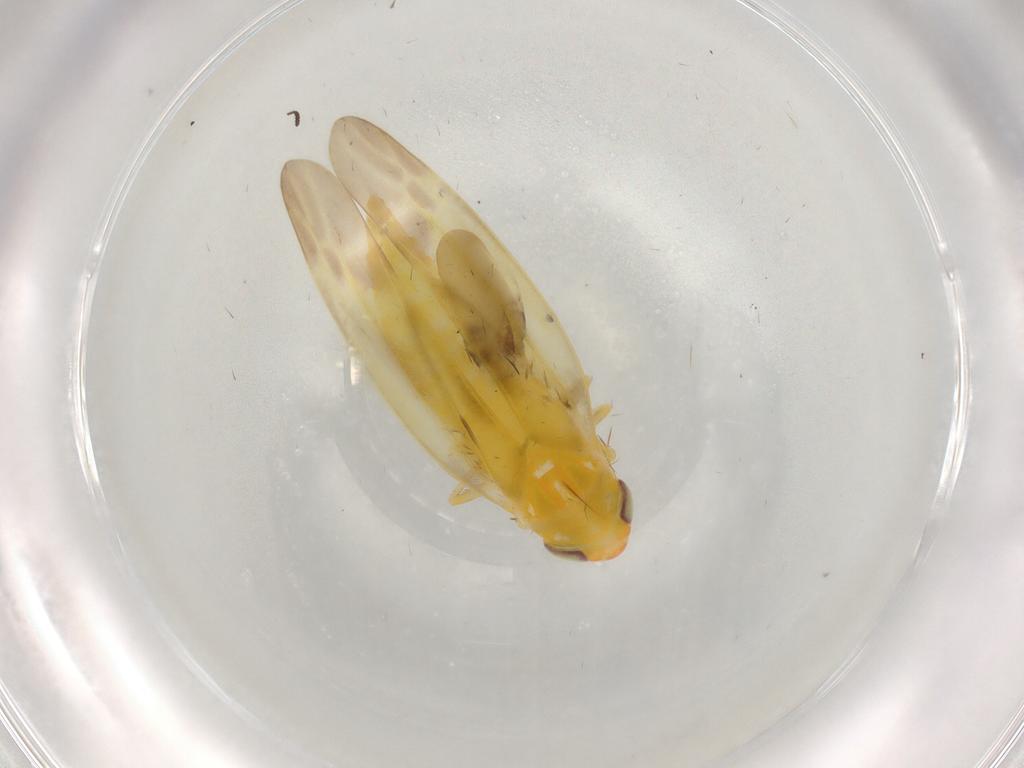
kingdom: Animalia
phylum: Arthropoda
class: Insecta
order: Hemiptera
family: Cicadellidae
